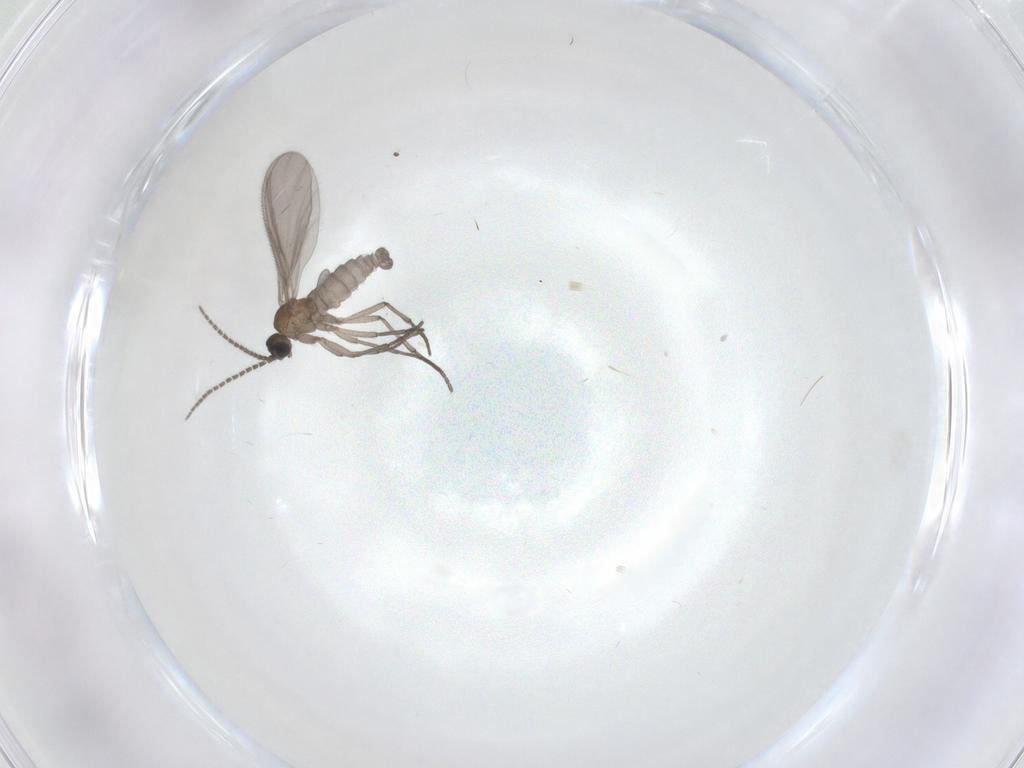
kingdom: Animalia
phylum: Arthropoda
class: Insecta
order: Diptera
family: Sciaridae
